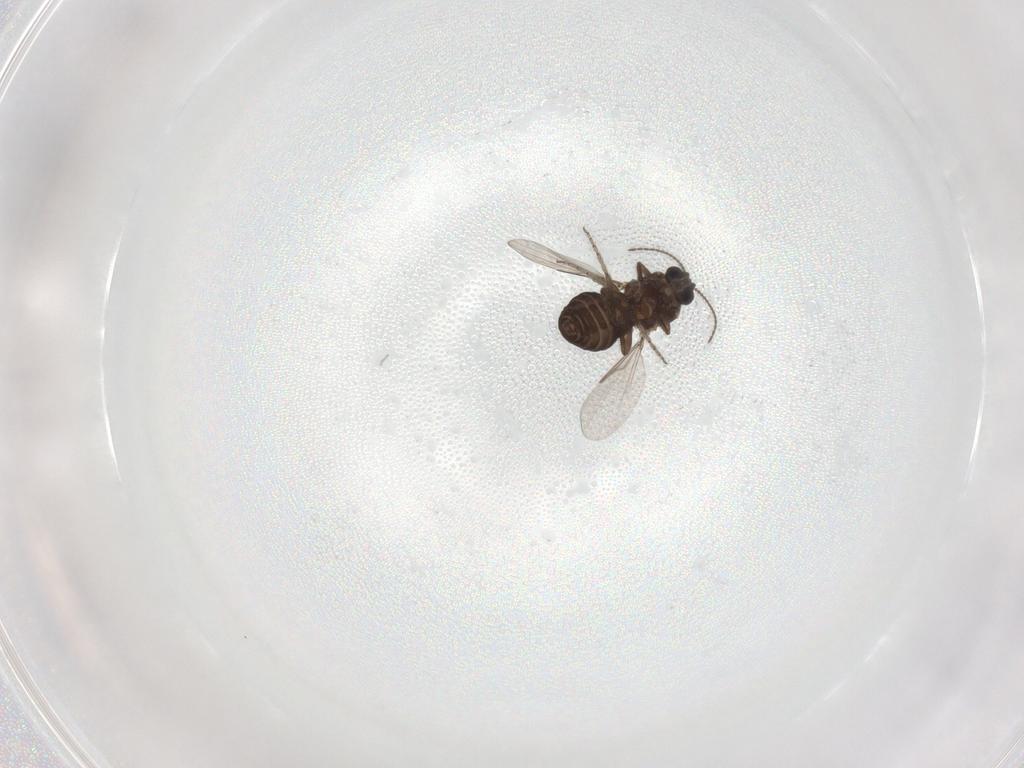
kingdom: Animalia
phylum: Arthropoda
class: Insecta
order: Diptera
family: Ceratopogonidae
